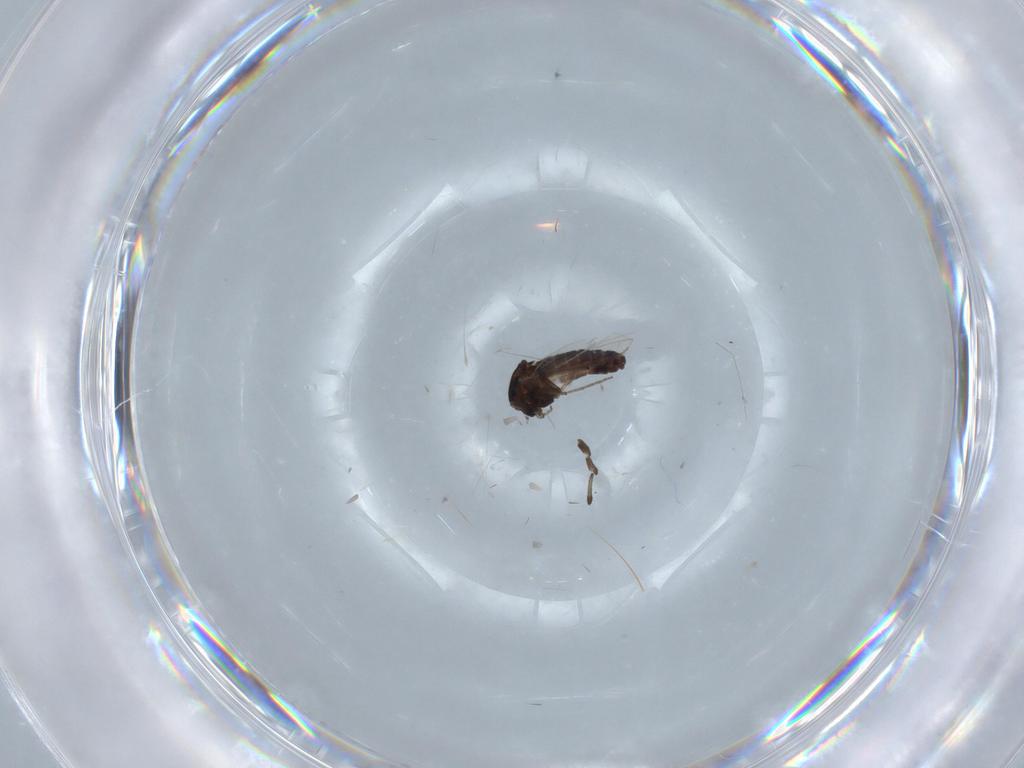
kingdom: Animalia
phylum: Arthropoda
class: Insecta
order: Diptera
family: Chironomidae
